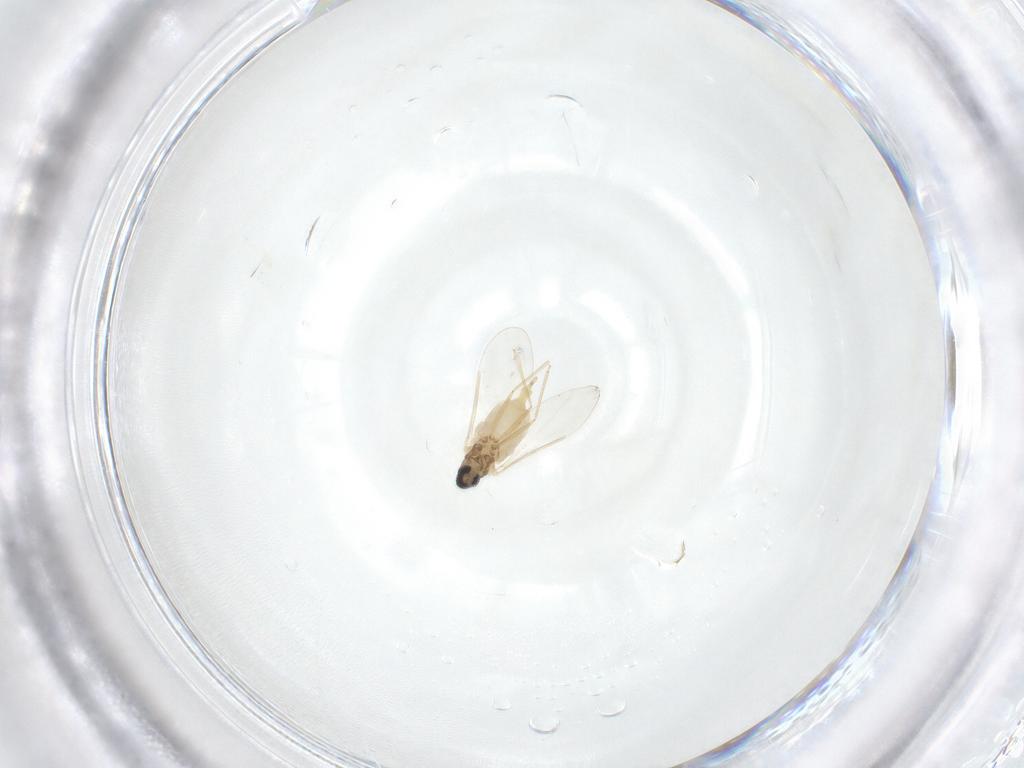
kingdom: Animalia
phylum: Arthropoda
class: Insecta
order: Diptera
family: Cecidomyiidae
